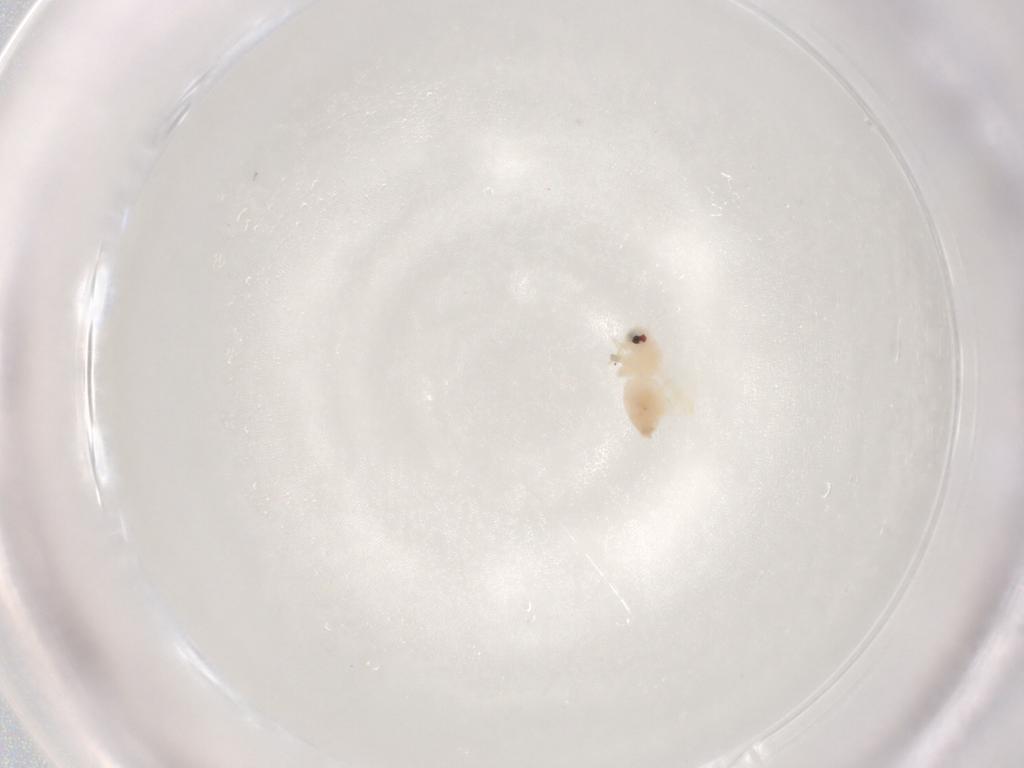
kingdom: Animalia
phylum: Arthropoda
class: Insecta
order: Hemiptera
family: Aleyrodidae
